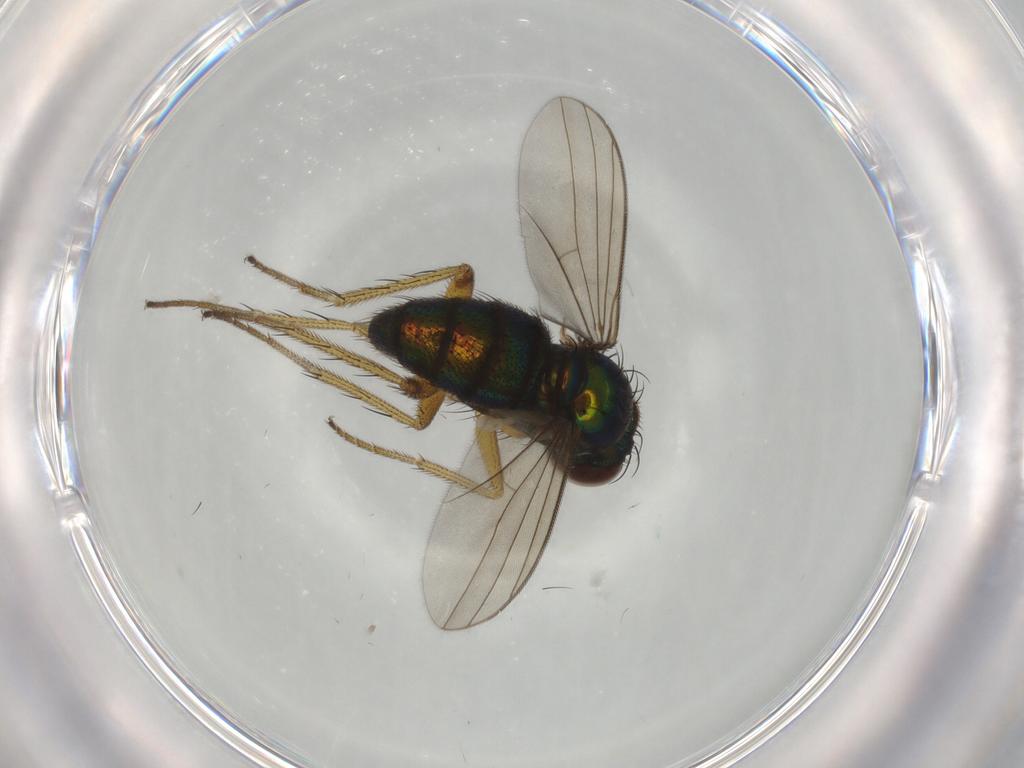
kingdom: Animalia
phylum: Arthropoda
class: Insecta
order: Diptera
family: Dolichopodidae
